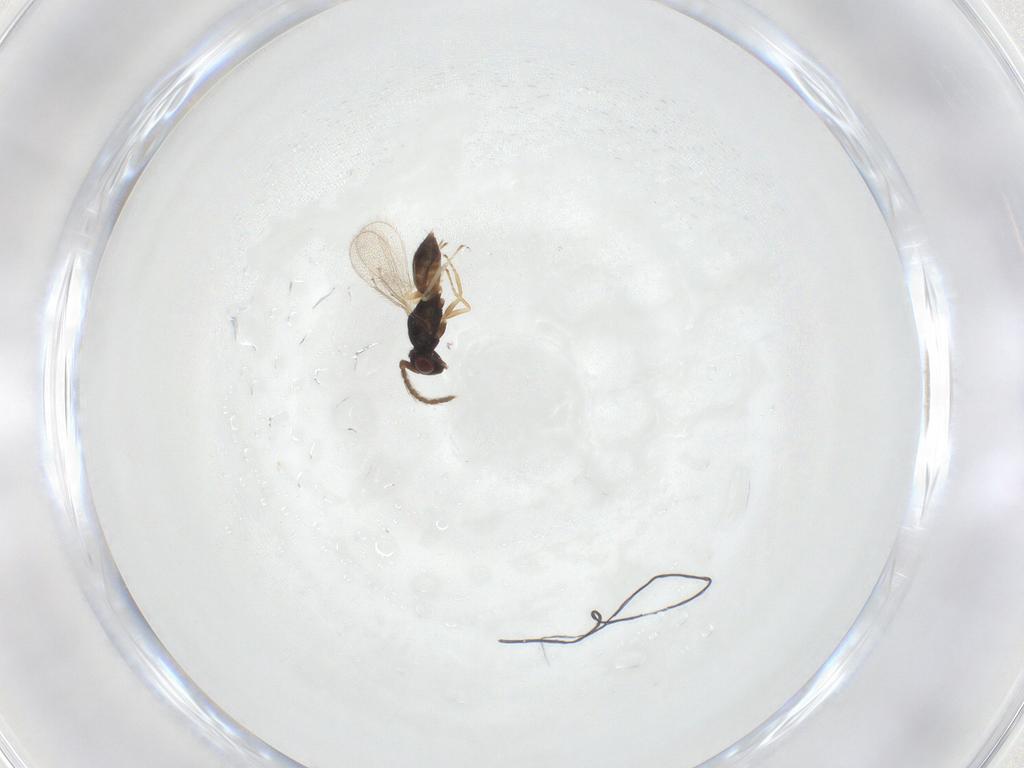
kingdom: Animalia
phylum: Arthropoda
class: Insecta
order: Hymenoptera
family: Eulophidae
